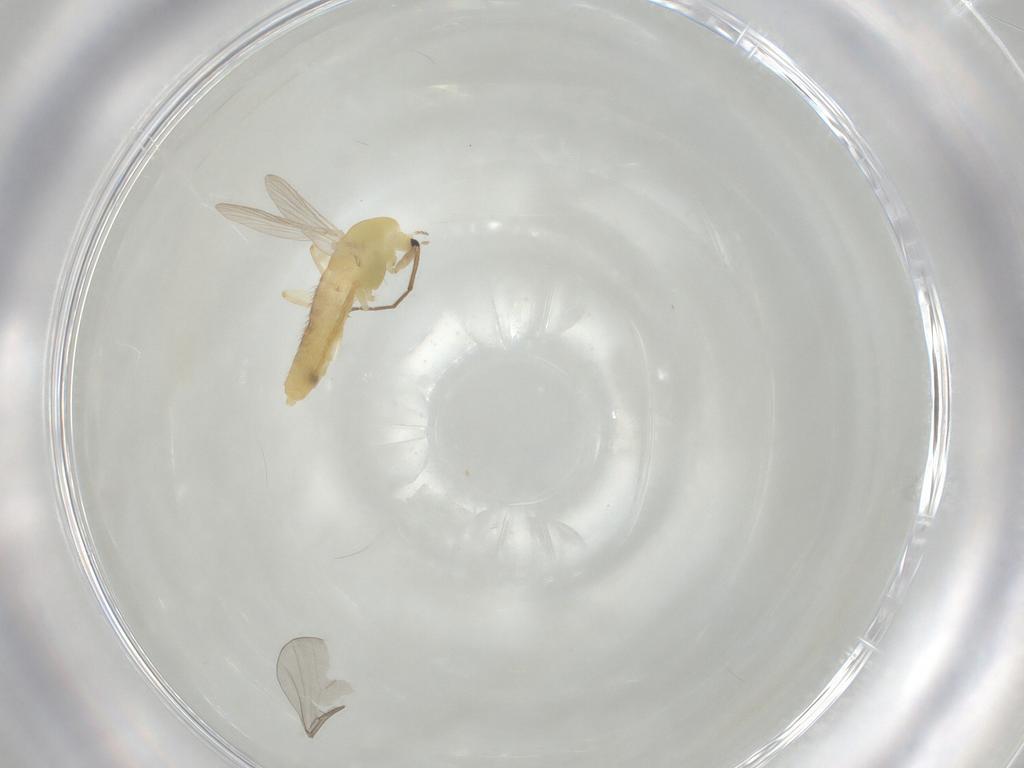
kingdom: Animalia
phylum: Arthropoda
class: Insecta
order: Diptera
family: Chironomidae
